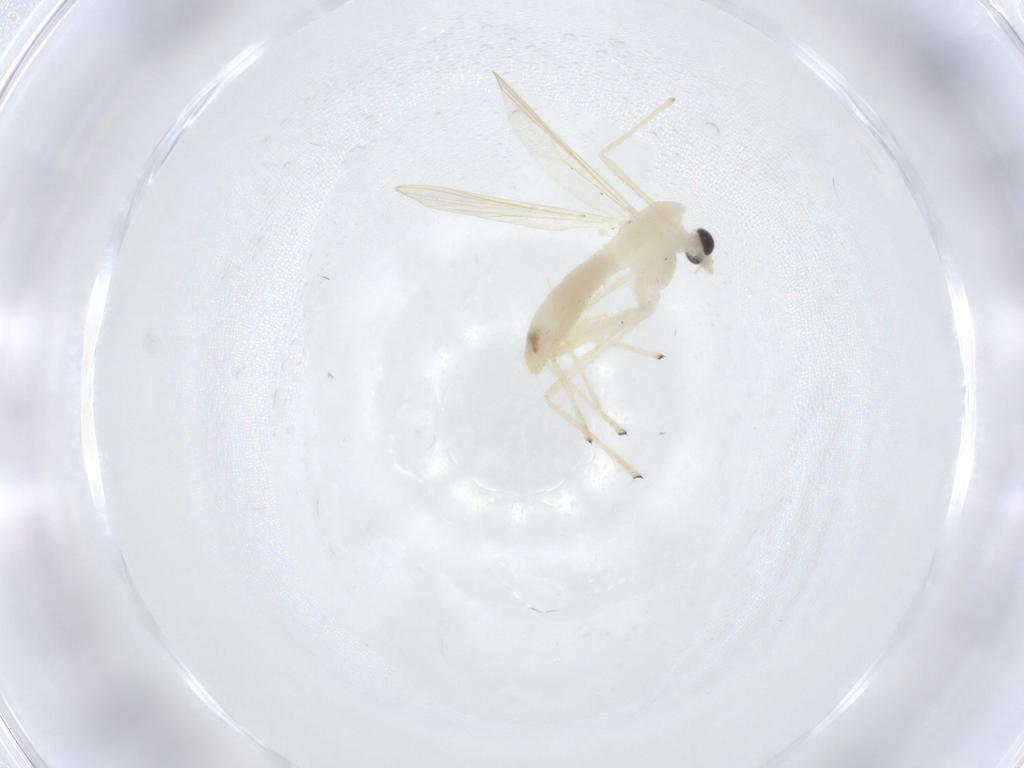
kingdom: Animalia
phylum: Arthropoda
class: Insecta
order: Diptera
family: Chironomidae
